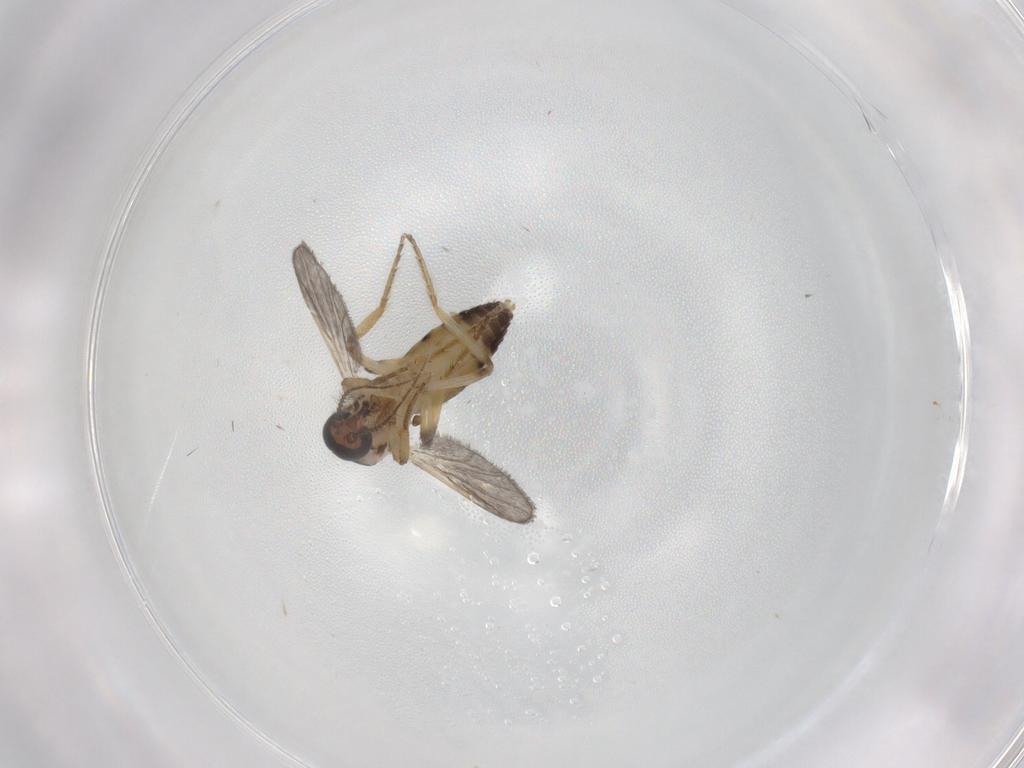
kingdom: Animalia
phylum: Arthropoda
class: Insecta
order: Diptera
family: Ceratopogonidae
